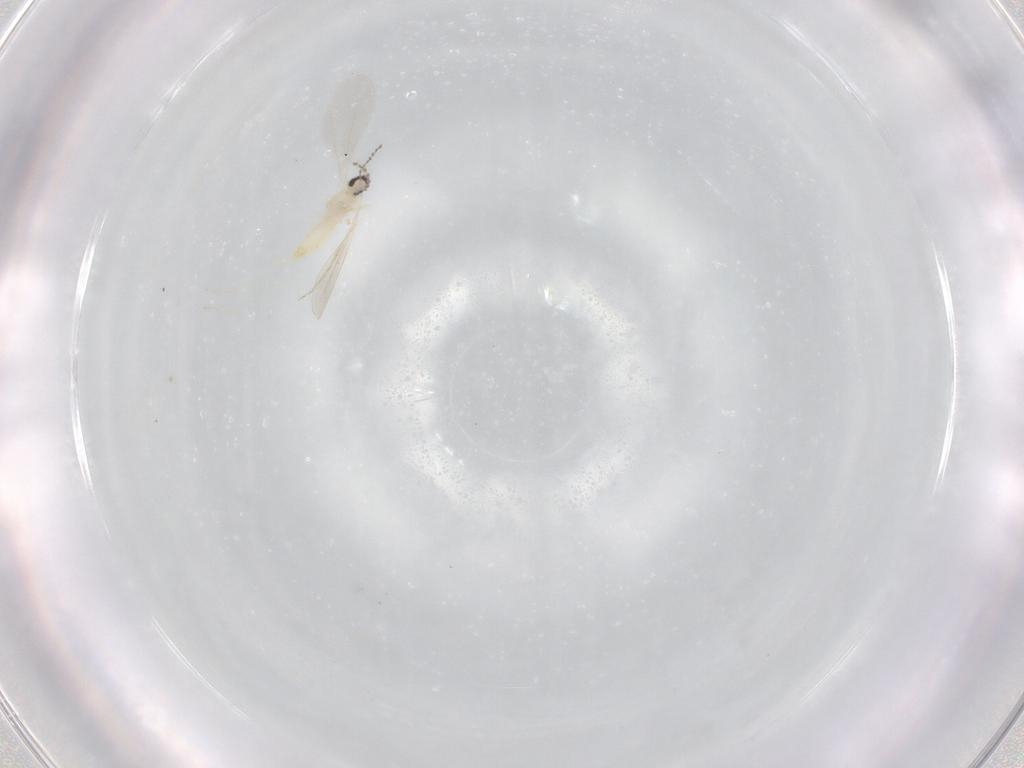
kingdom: Animalia
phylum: Arthropoda
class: Insecta
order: Diptera
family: Cecidomyiidae
